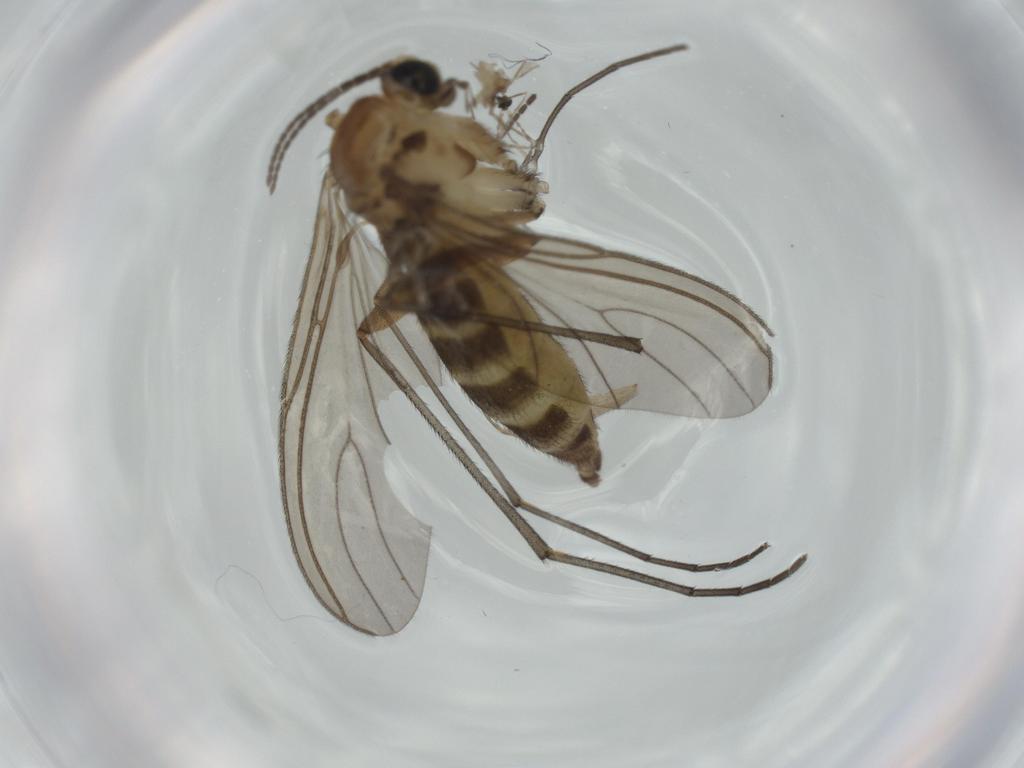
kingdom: Animalia
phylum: Arthropoda
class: Insecta
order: Diptera
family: Sciaridae
